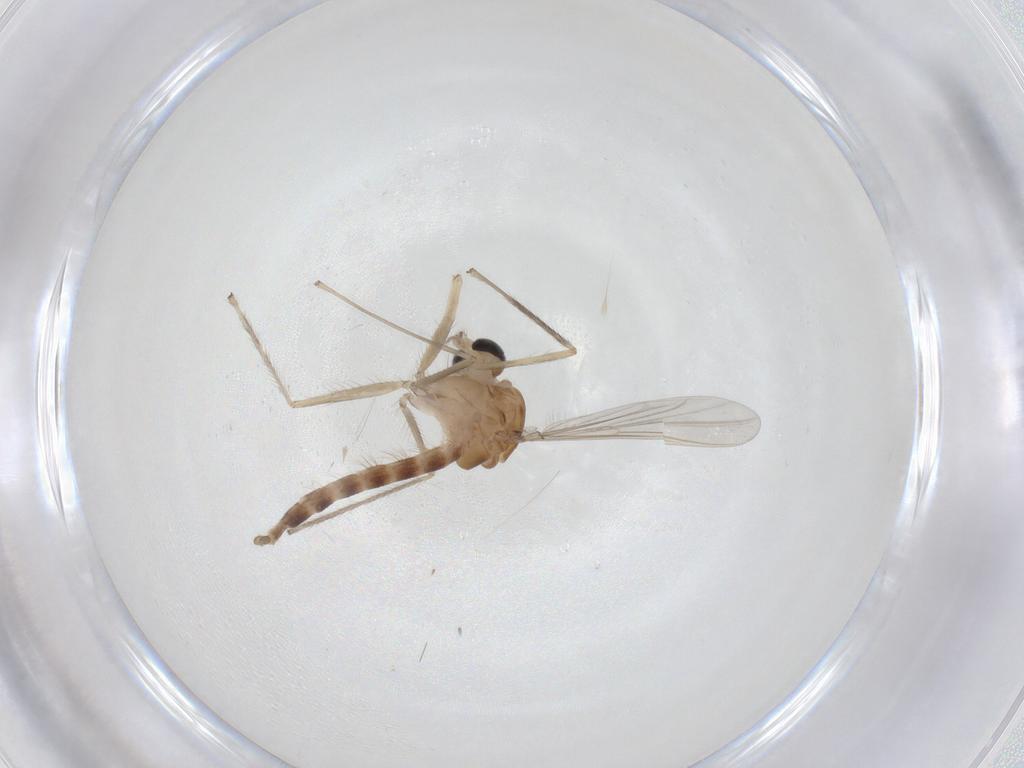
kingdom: Animalia
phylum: Arthropoda
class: Insecta
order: Diptera
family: Chironomidae
